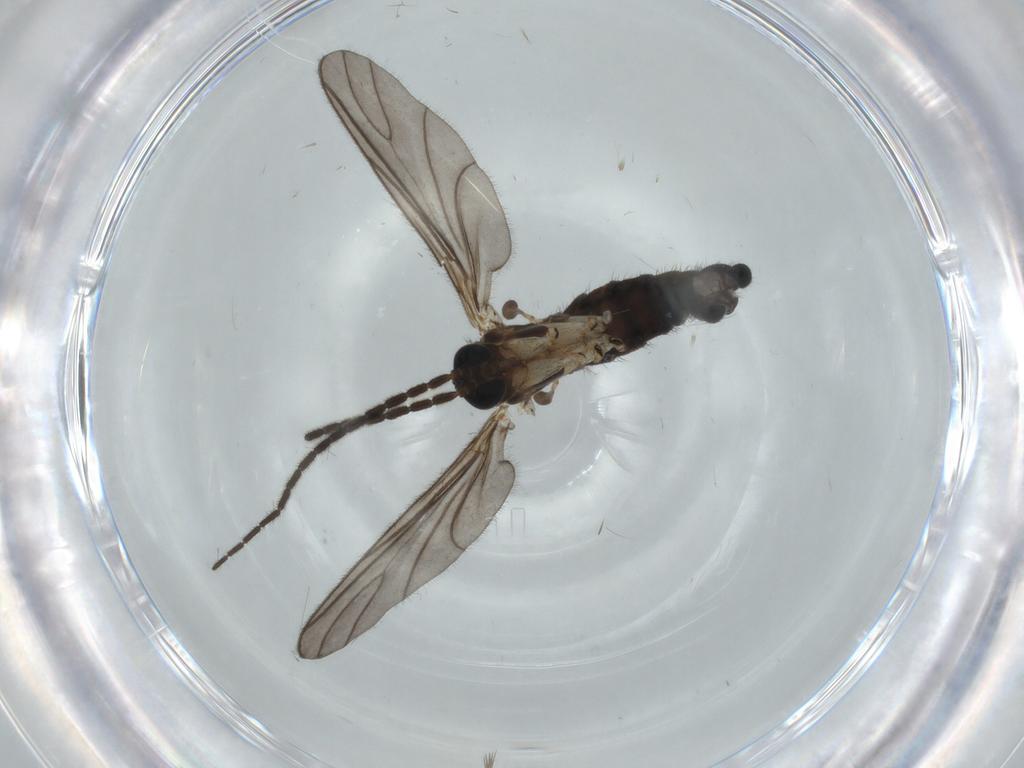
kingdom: Animalia
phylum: Arthropoda
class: Insecta
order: Diptera
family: Sciaridae
